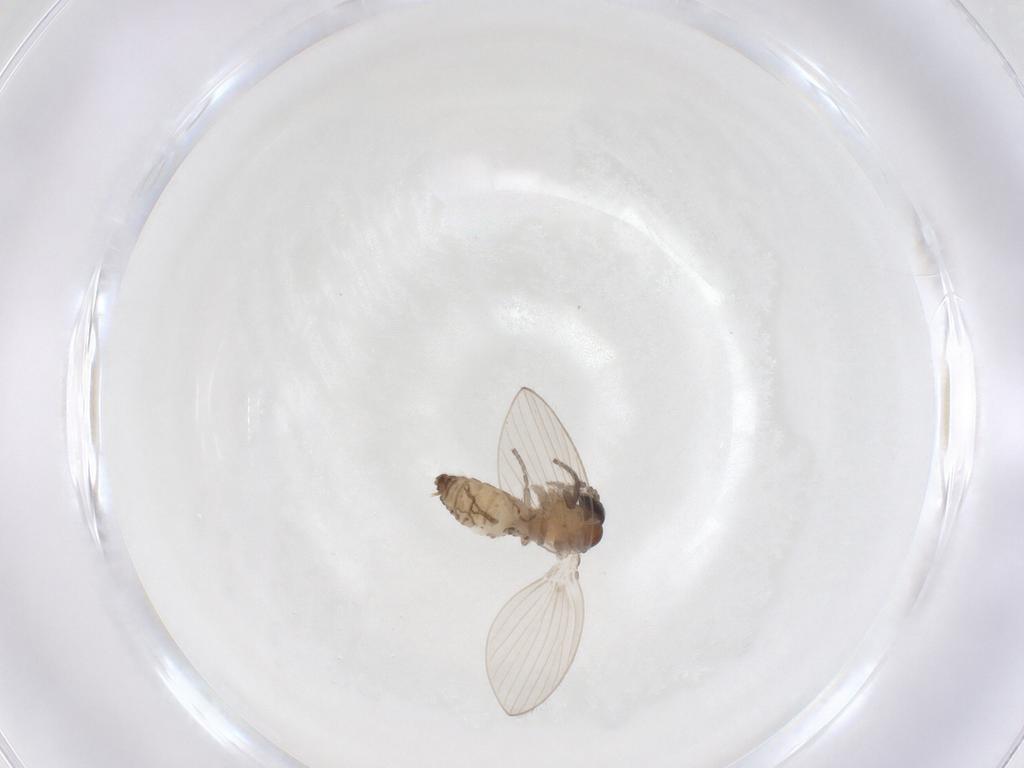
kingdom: Animalia
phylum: Arthropoda
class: Insecta
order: Diptera
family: Psychodidae
